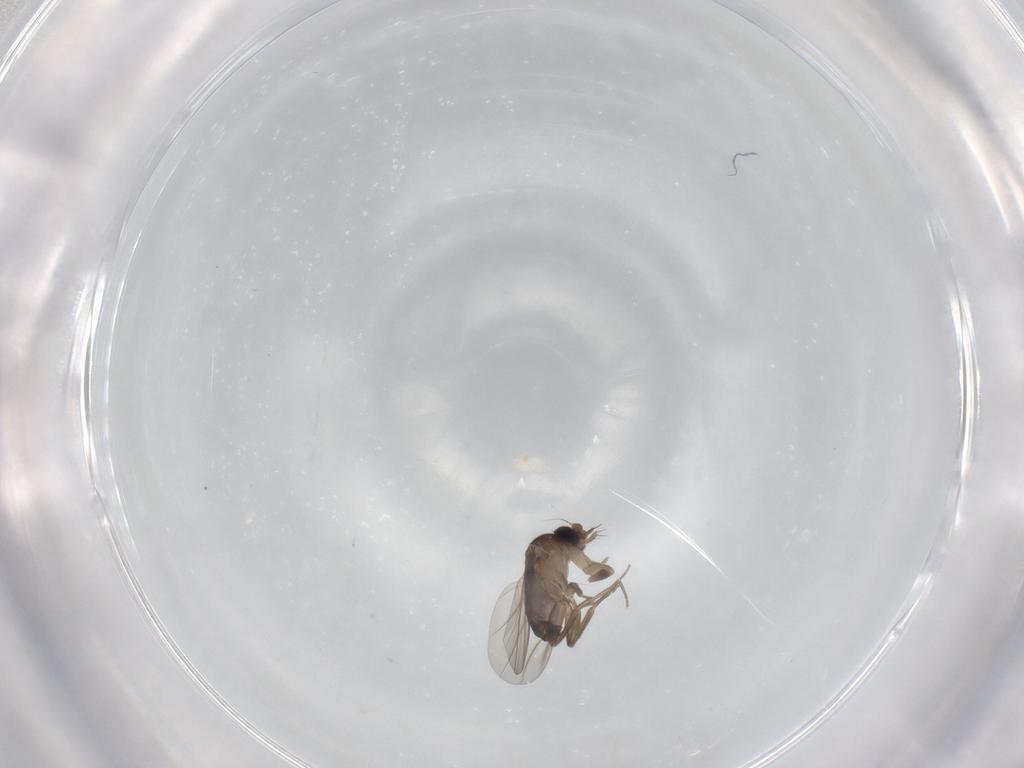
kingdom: Animalia
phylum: Arthropoda
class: Insecta
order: Diptera
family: Phoridae
